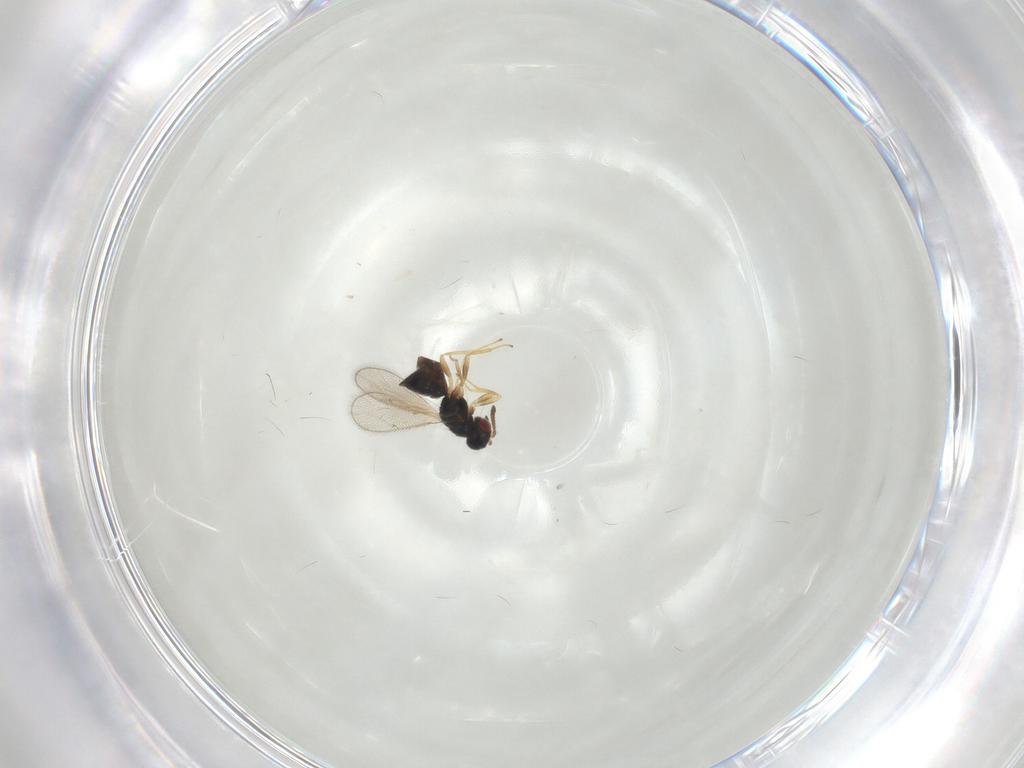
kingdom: Animalia
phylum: Arthropoda
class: Insecta
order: Hymenoptera
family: Tetracampidae
